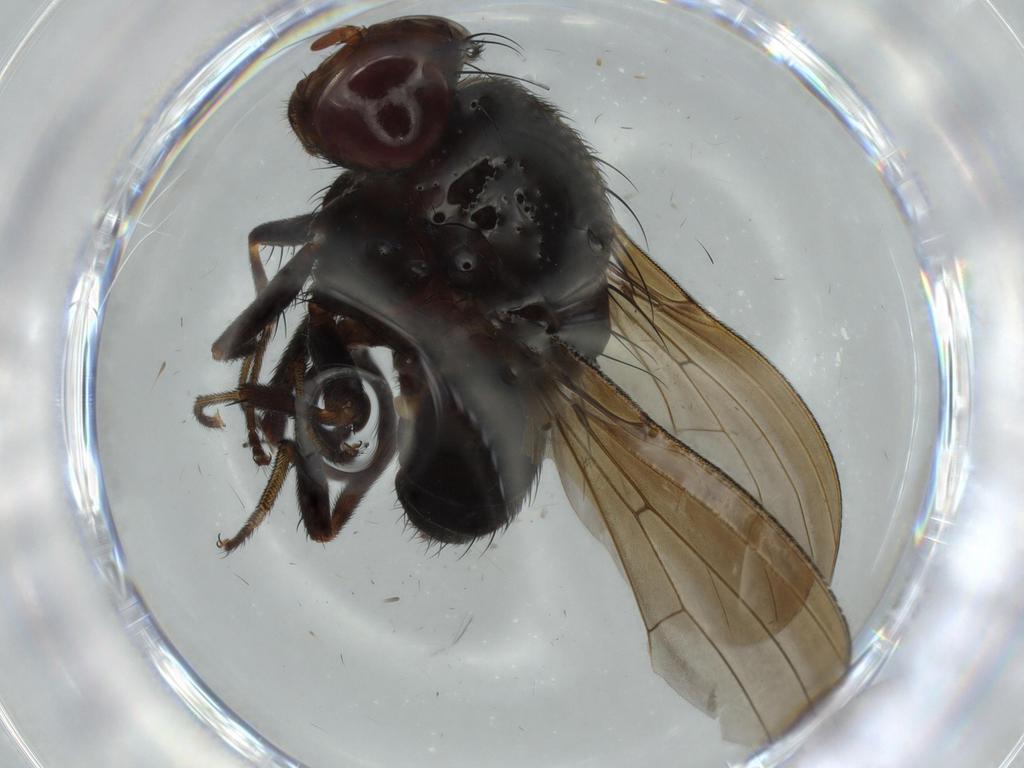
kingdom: Animalia
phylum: Arthropoda
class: Insecta
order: Diptera
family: Sciaridae
